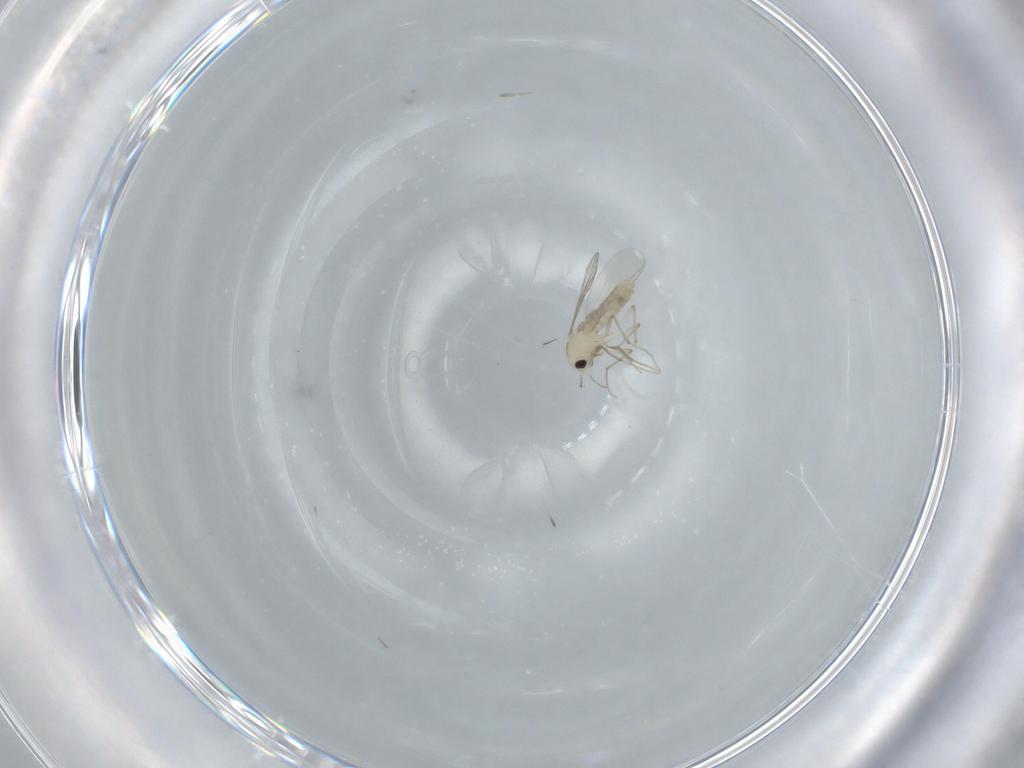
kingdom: Animalia
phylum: Arthropoda
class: Insecta
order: Diptera
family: Chironomidae
